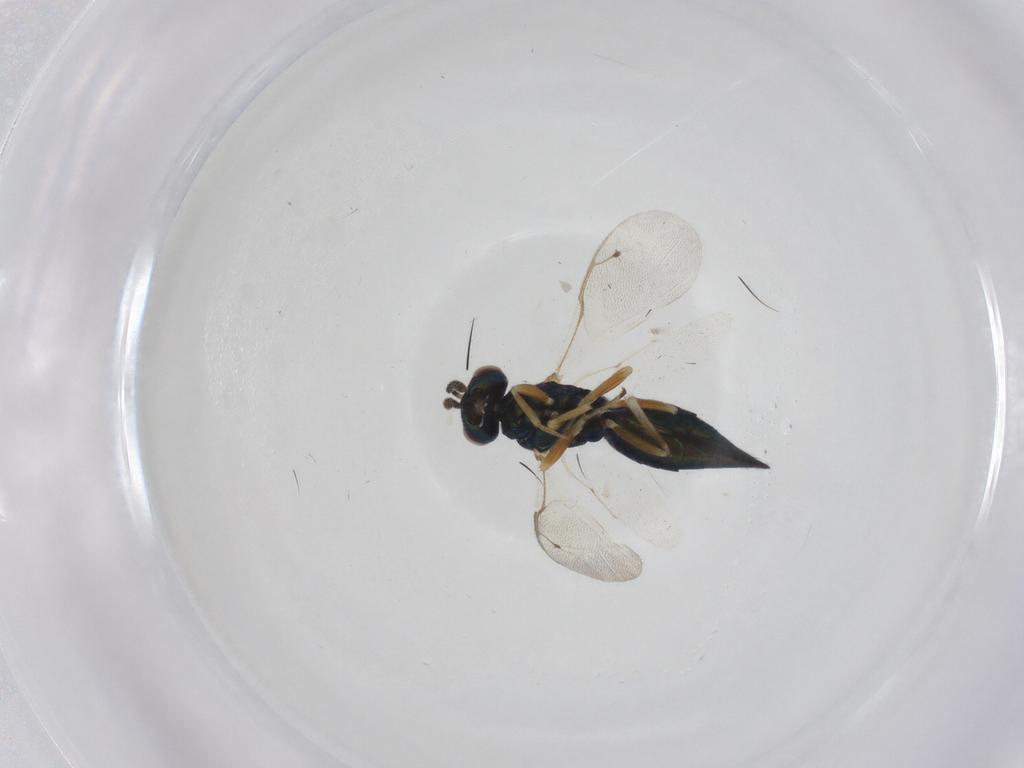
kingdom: Animalia
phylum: Arthropoda
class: Insecta
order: Hymenoptera
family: Pteromalidae
